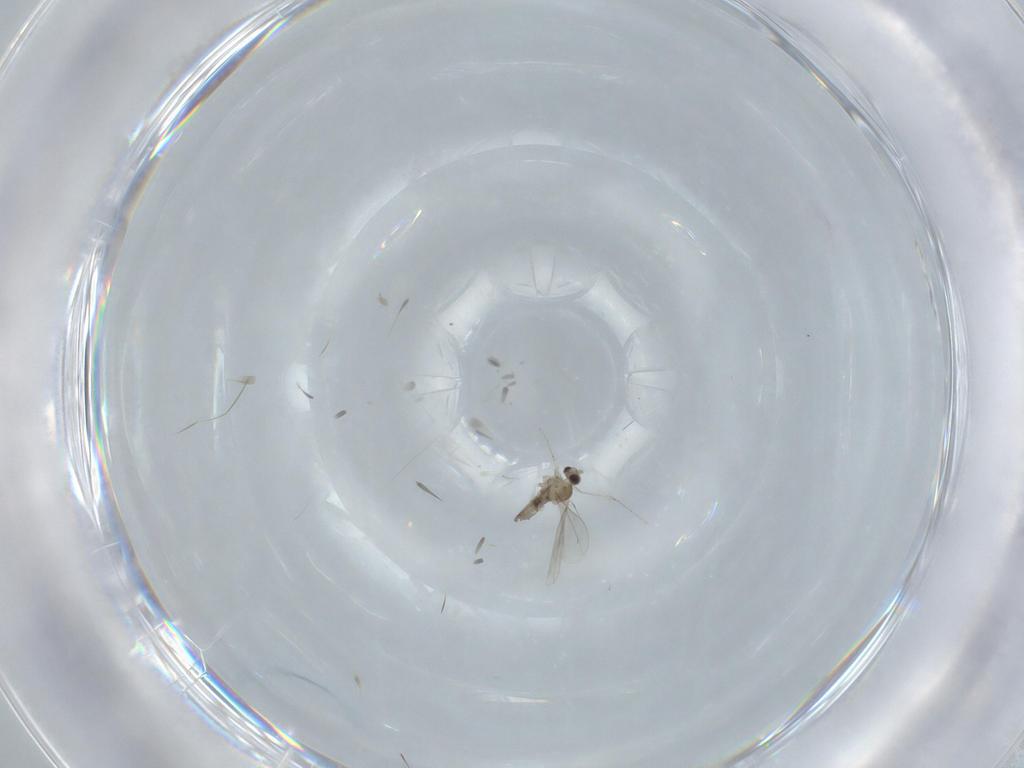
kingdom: Animalia
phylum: Arthropoda
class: Insecta
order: Diptera
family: Cecidomyiidae
